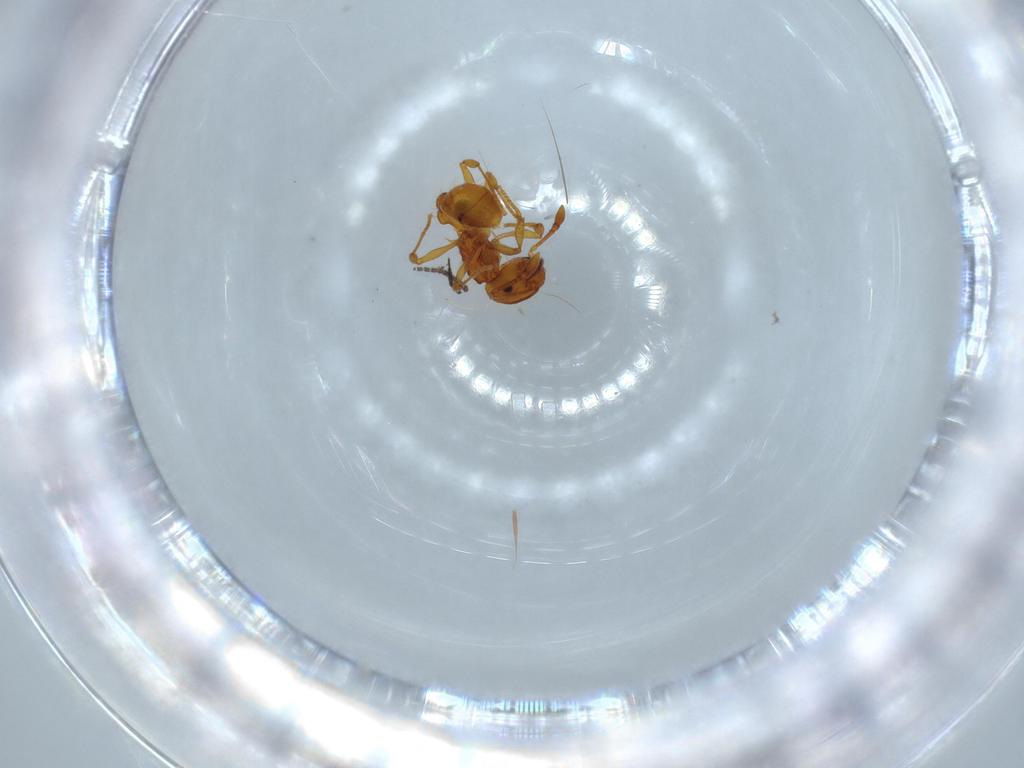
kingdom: Animalia
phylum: Arthropoda
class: Insecta
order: Hymenoptera
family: Formicidae
